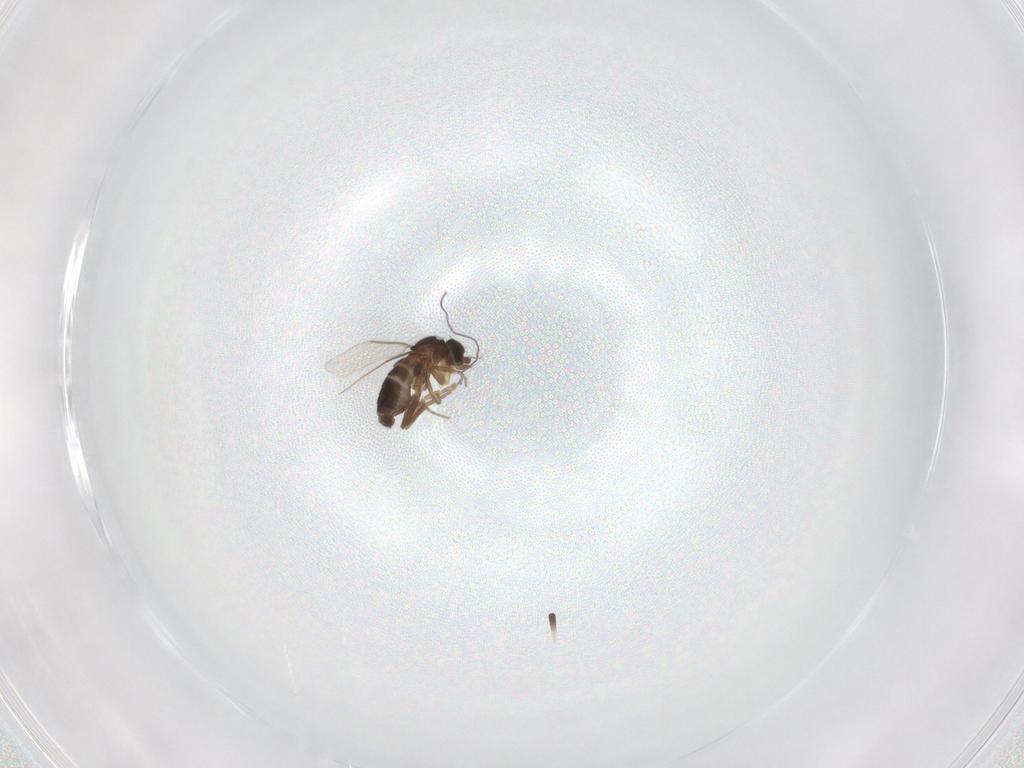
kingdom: Animalia
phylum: Arthropoda
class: Insecta
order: Diptera
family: Phoridae
